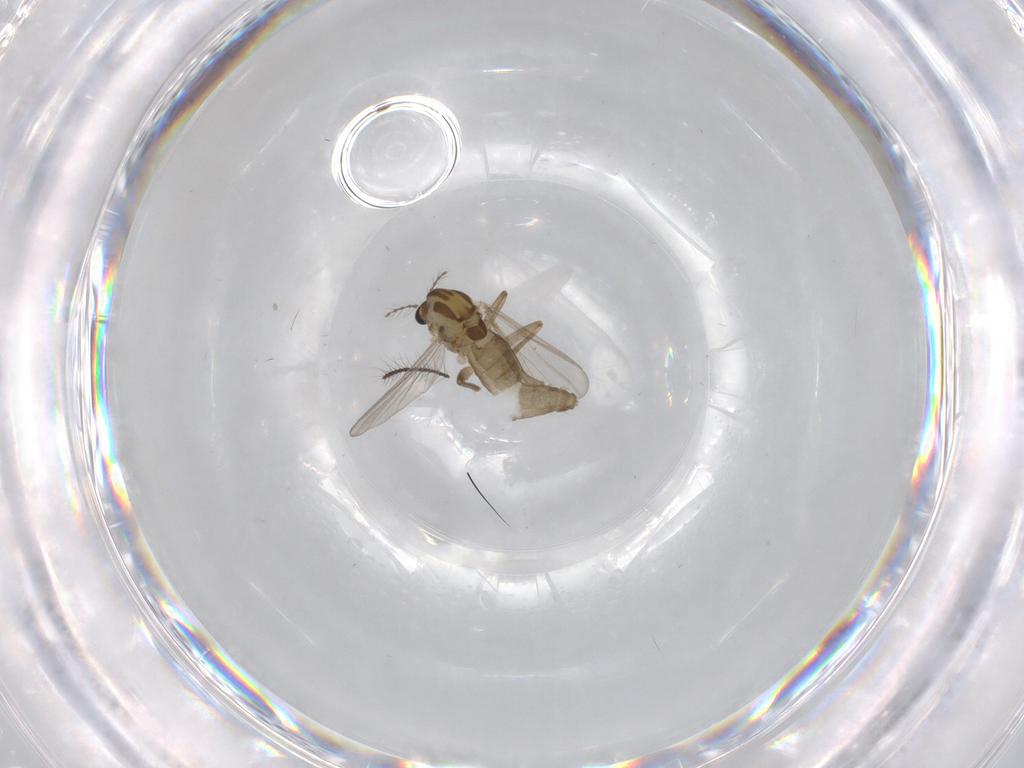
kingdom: Animalia
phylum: Arthropoda
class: Insecta
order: Diptera
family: Chironomidae
